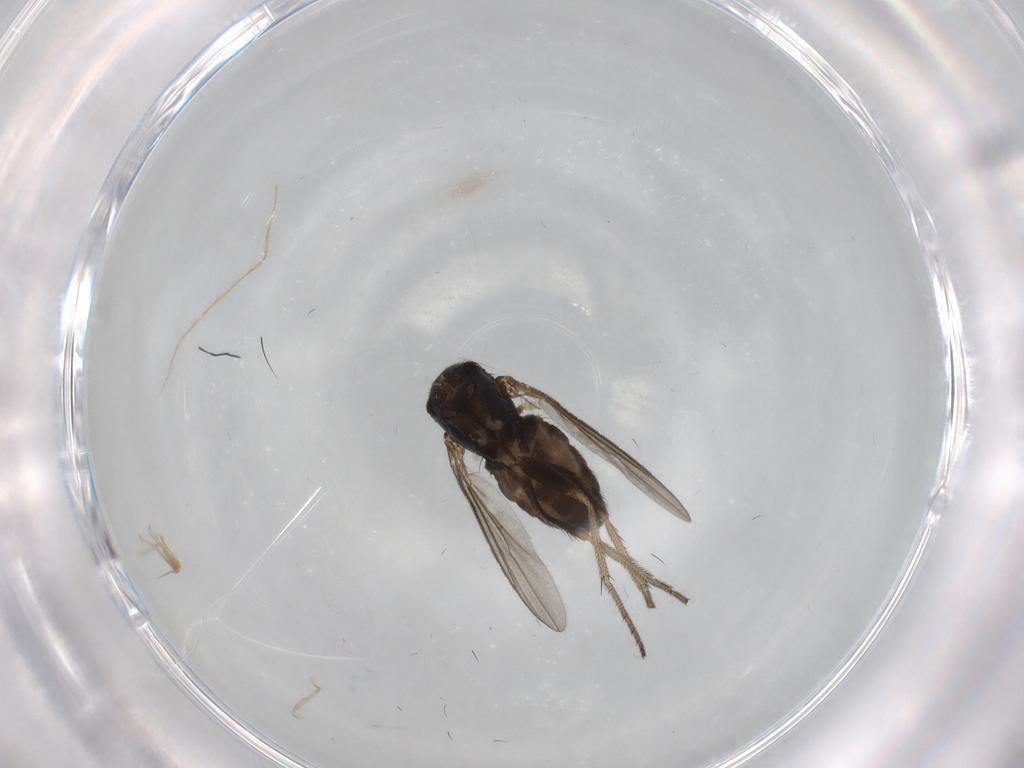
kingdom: Animalia
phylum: Arthropoda
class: Insecta
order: Diptera
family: Dolichopodidae
